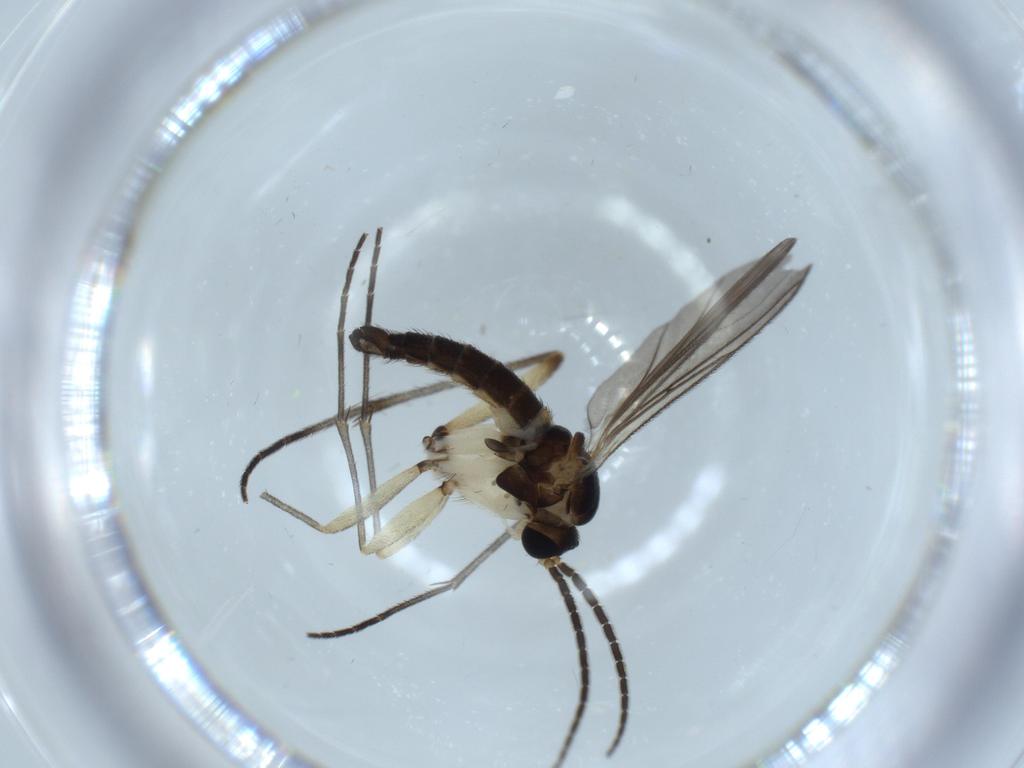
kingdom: Animalia
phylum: Arthropoda
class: Insecta
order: Diptera
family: Sciaridae
